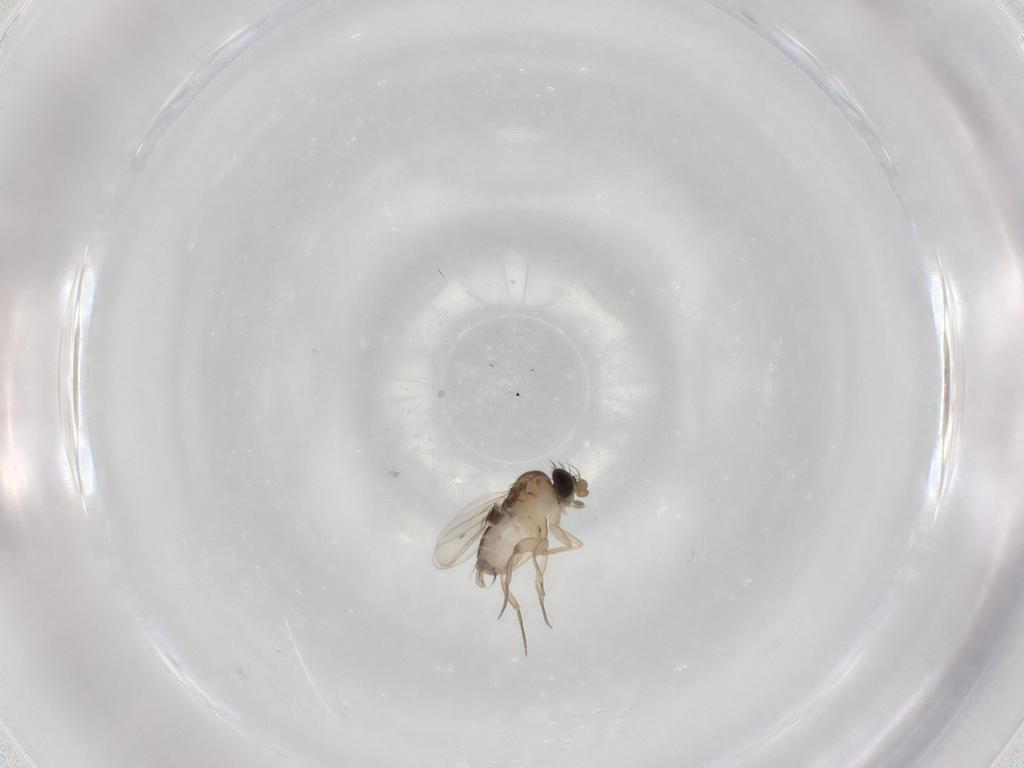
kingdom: Animalia
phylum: Arthropoda
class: Insecta
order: Diptera
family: Phoridae
